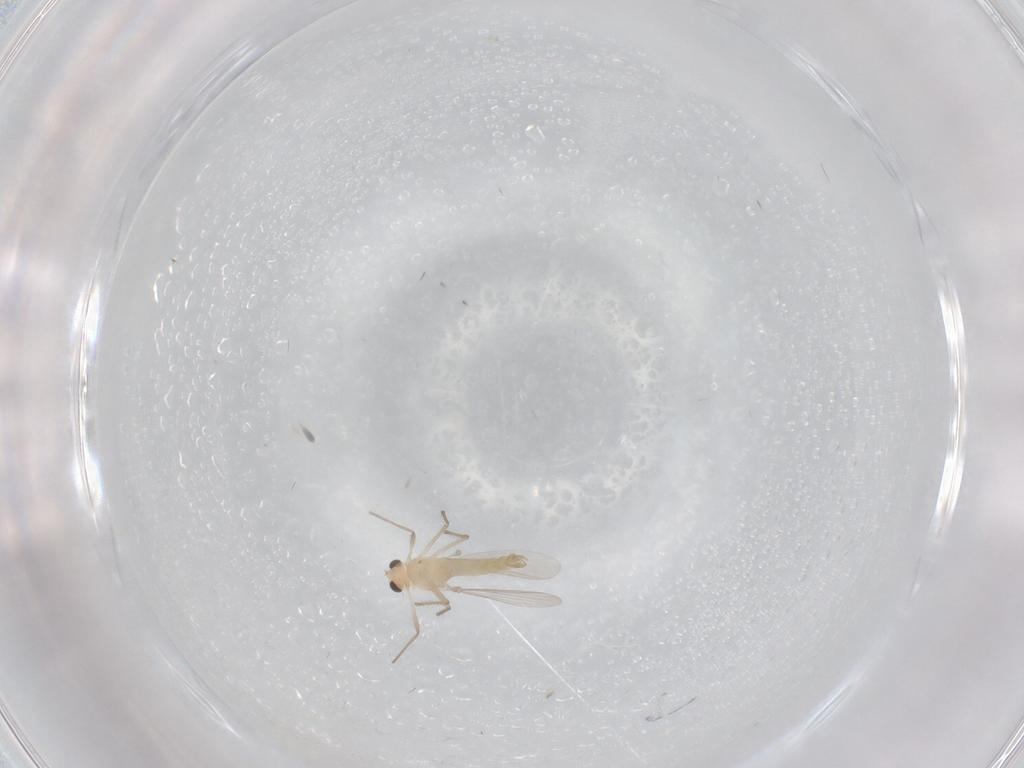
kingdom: Animalia
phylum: Arthropoda
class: Insecta
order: Diptera
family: Chironomidae
